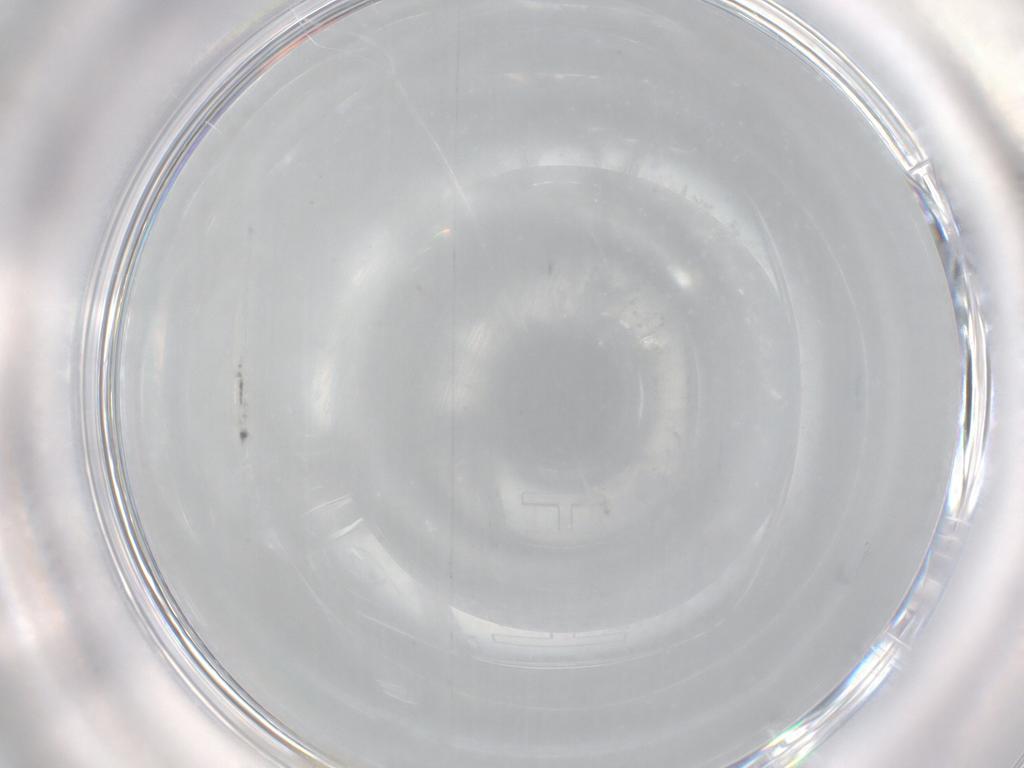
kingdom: Animalia
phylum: Arthropoda
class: Insecta
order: Diptera
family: Cecidomyiidae
